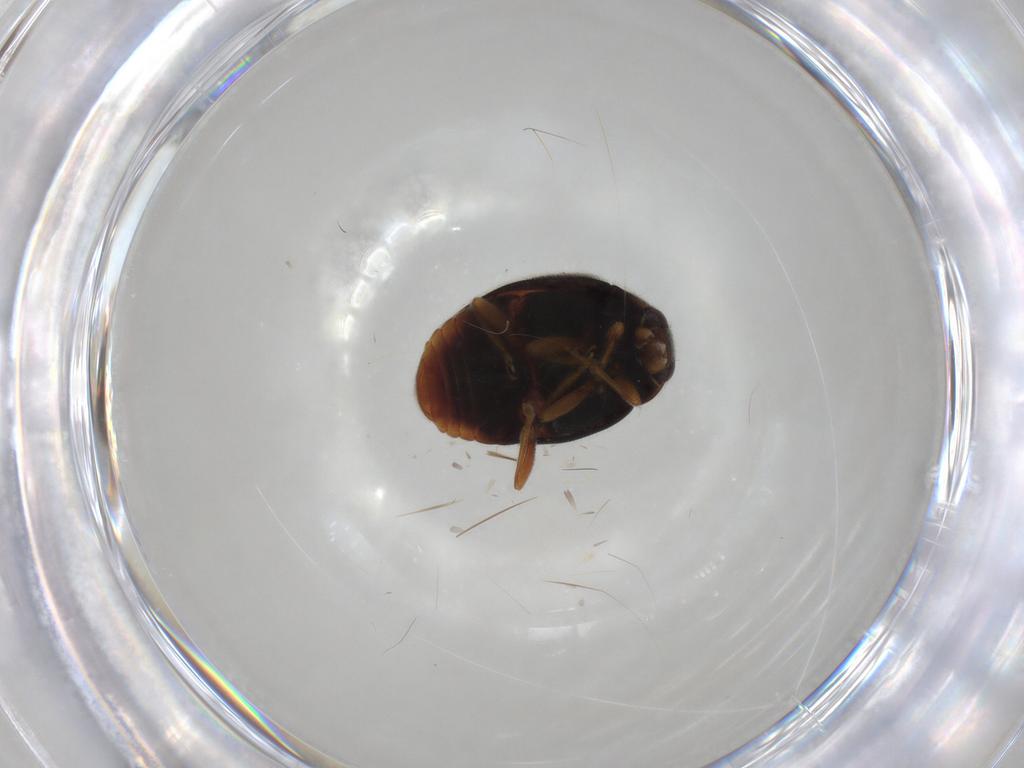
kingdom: Animalia
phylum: Arthropoda
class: Insecta
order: Coleoptera
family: Coccinellidae
